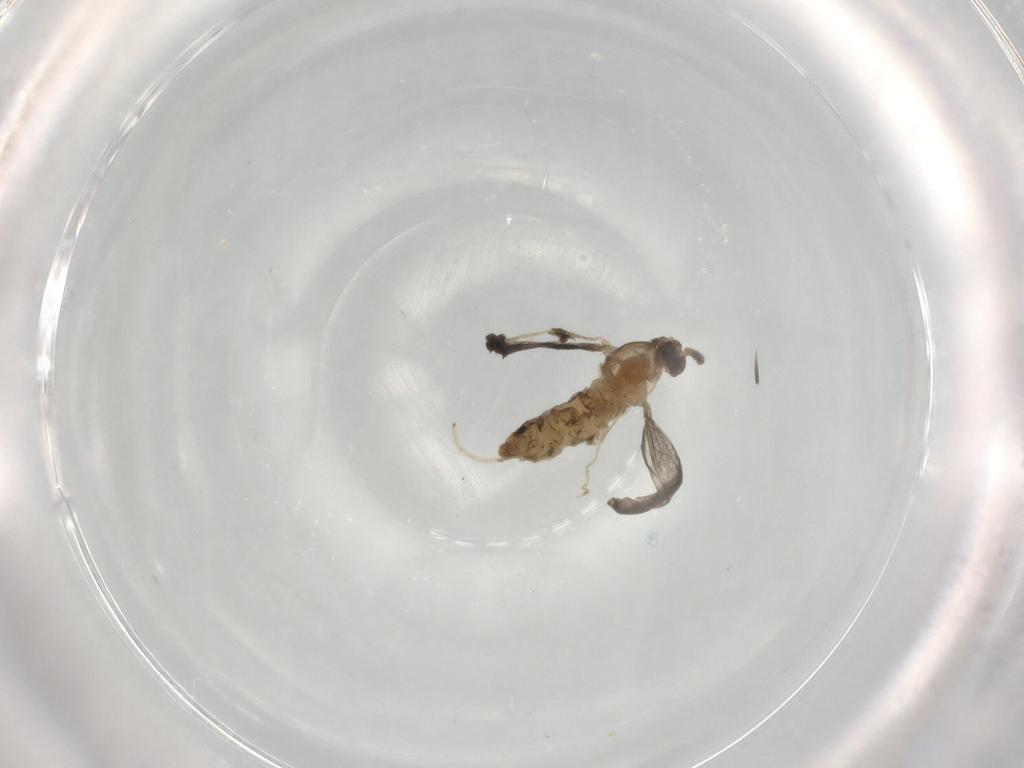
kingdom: Animalia
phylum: Arthropoda
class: Insecta
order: Diptera
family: Cecidomyiidae
